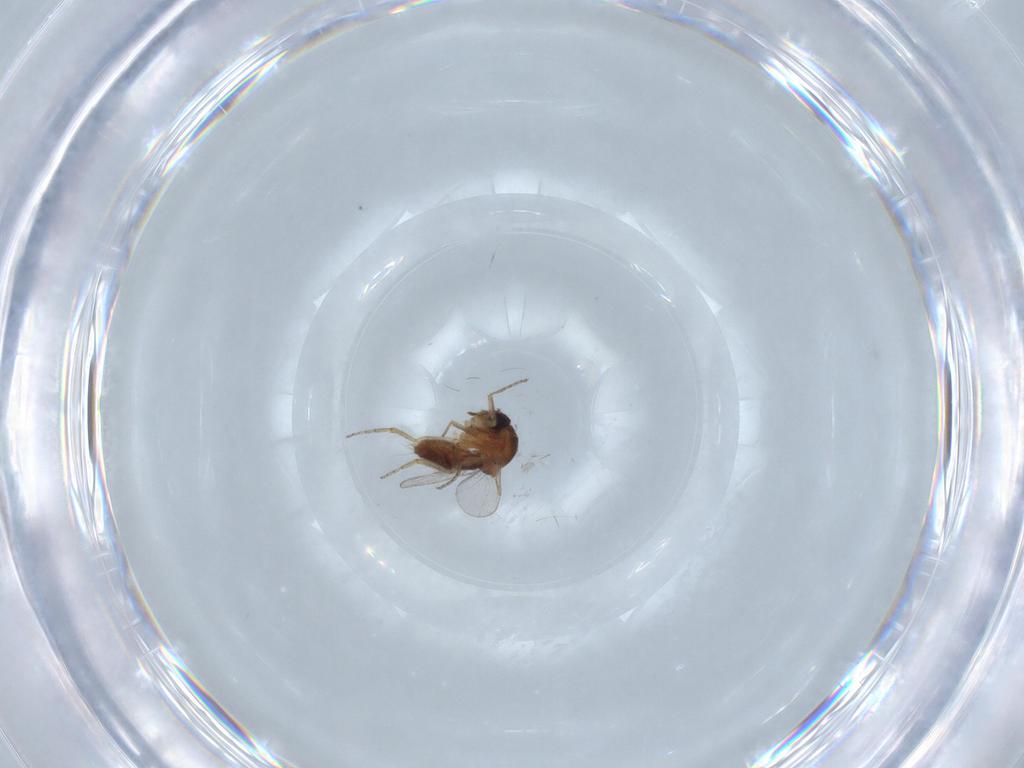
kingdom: Animalia
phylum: Arthropoda
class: Insecta
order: Diptera
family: Ceratopogonidae
